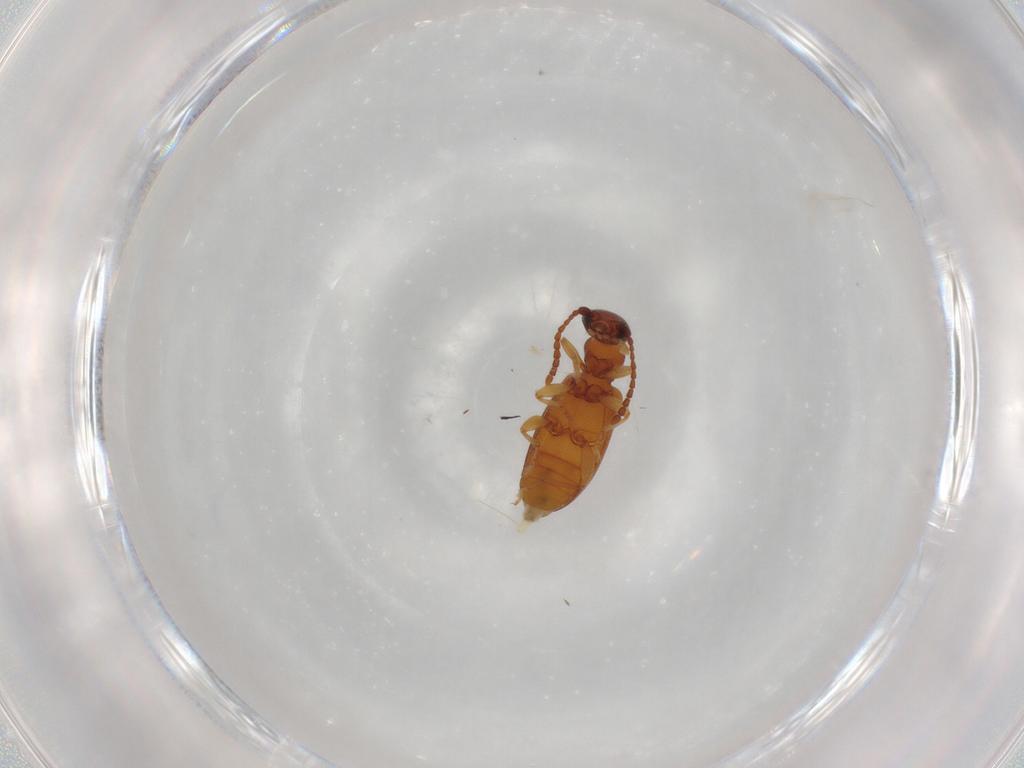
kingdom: Animalia
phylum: Arthropoda
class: Insecta
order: Coleoptera
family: Anthicidae
